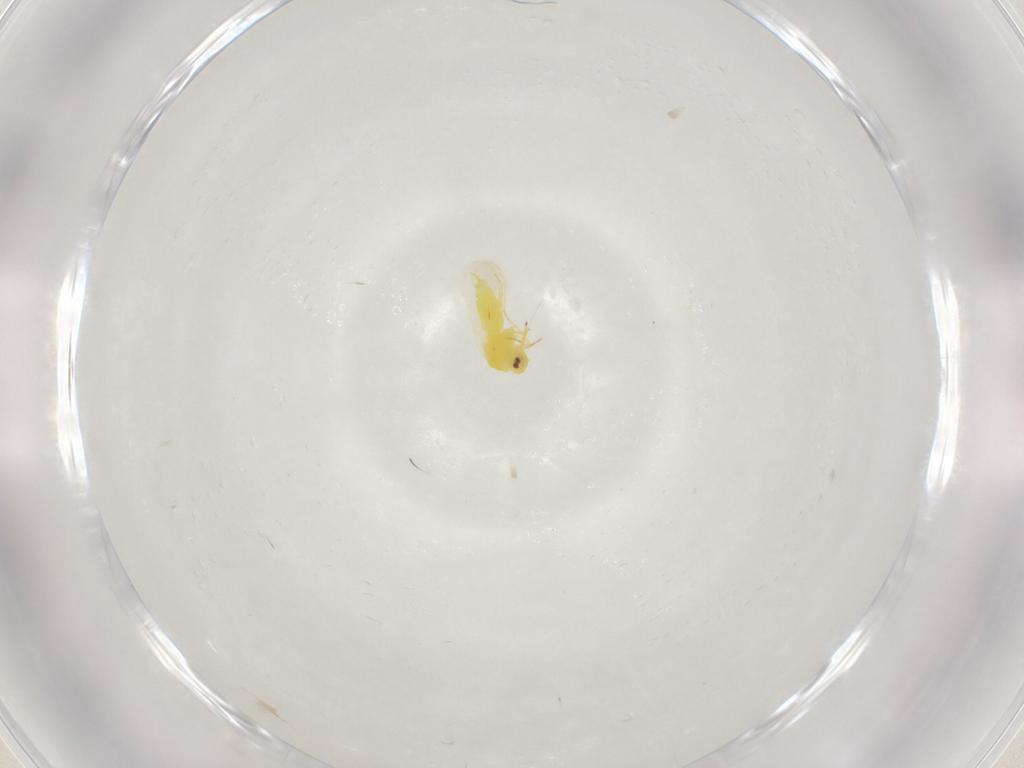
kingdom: Animalia
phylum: Arthropoda
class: Insecta
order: Hemiptera
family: Aleyrodidae
